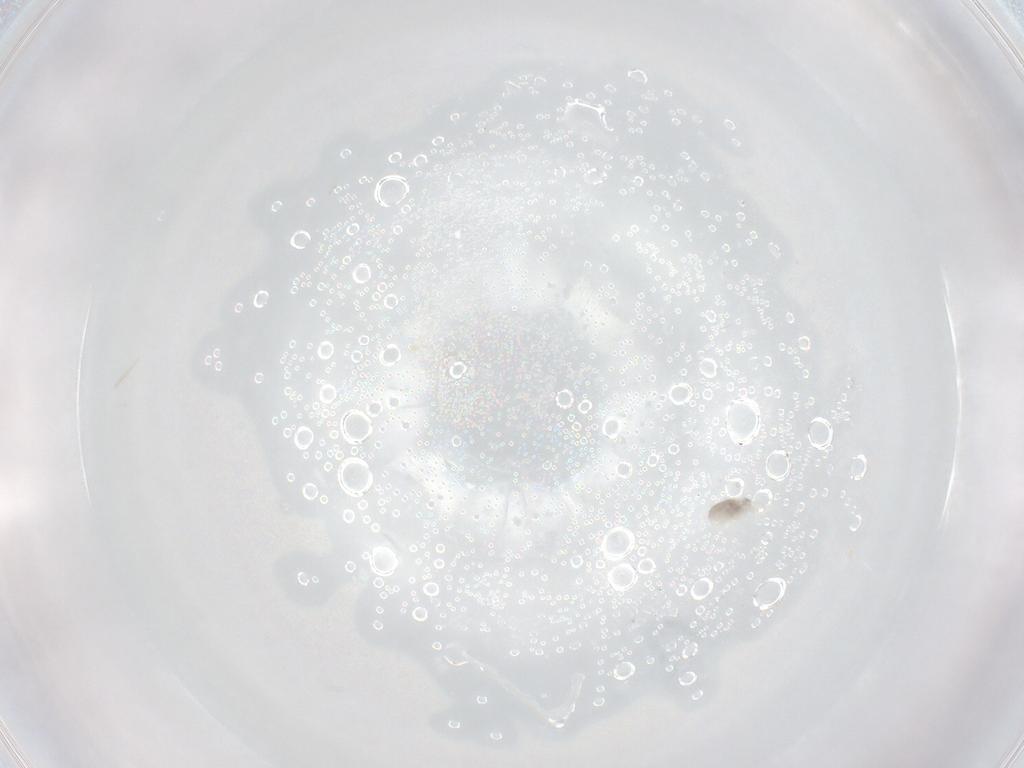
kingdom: Animalia
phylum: Arthropoda
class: Arachnida
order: Trombidiformes
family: Eupodidae
